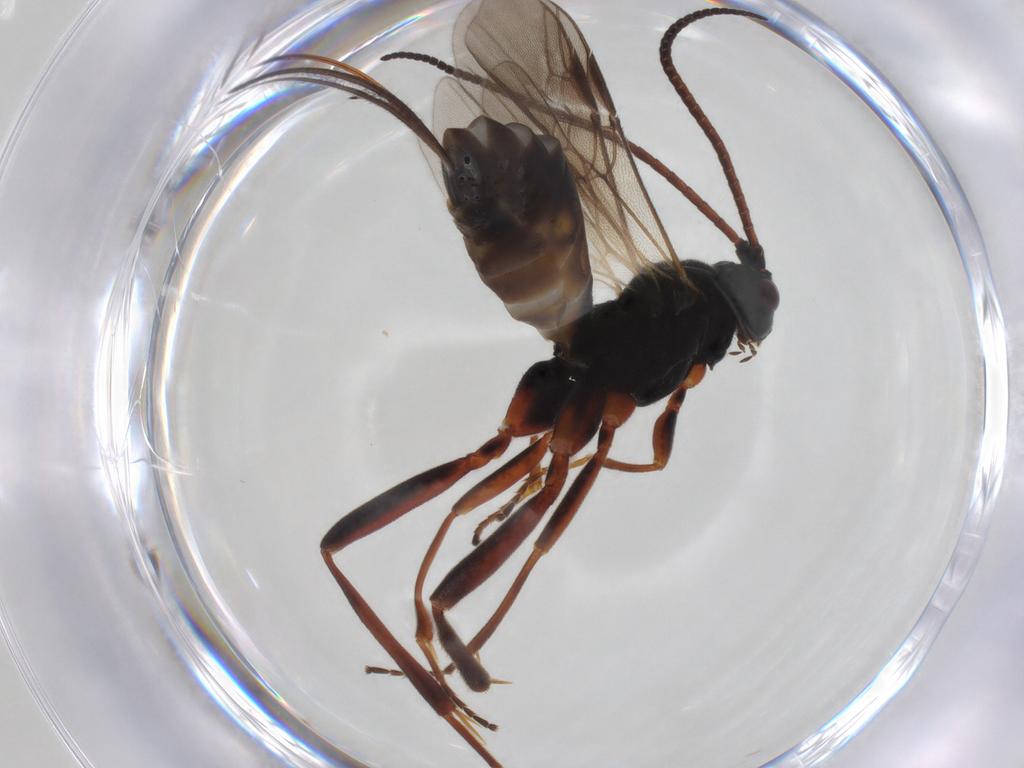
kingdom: Animalia
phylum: Arthropoda
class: Insecta
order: Hymenoptera
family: Braconidae
